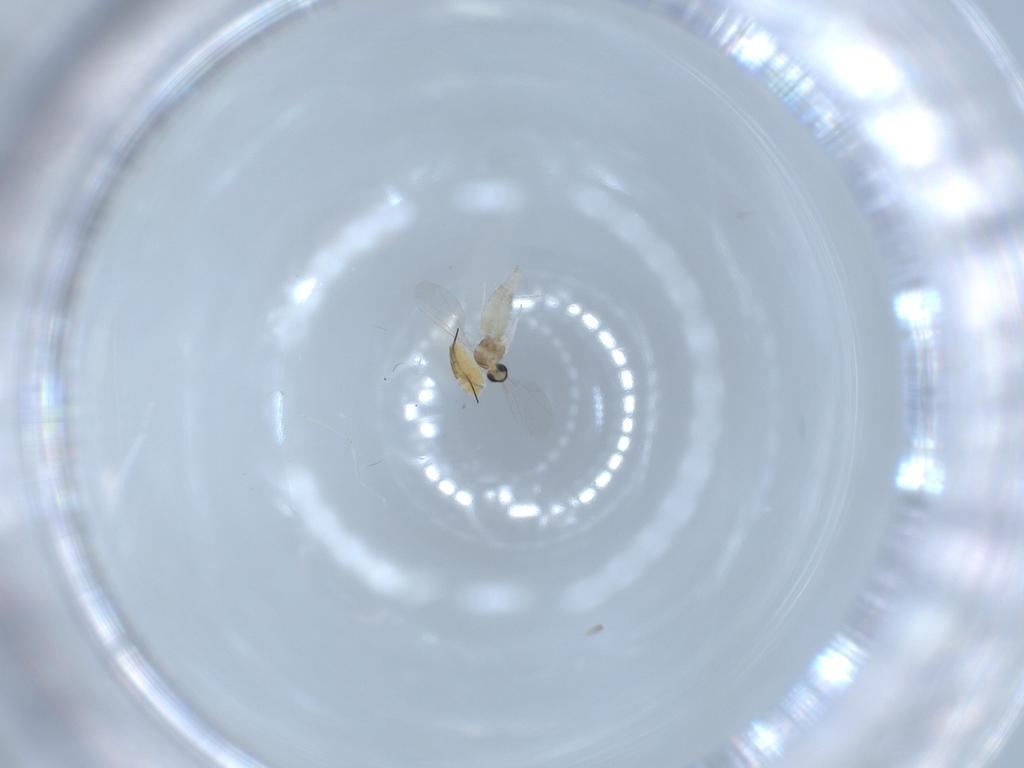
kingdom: Animalia
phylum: Arthropoda
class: Insecta
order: Diptera
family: Cecidomyiidae
